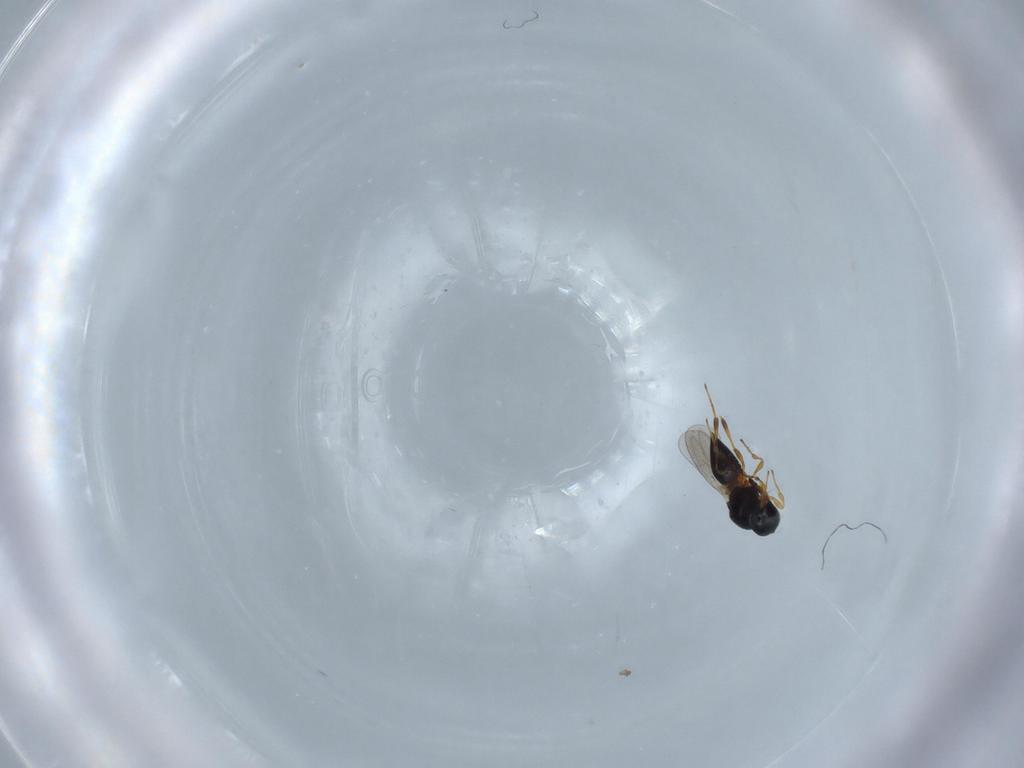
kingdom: Animalia
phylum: Arthropoda
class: Insecta
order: Hymenoptera
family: Platygastridae
